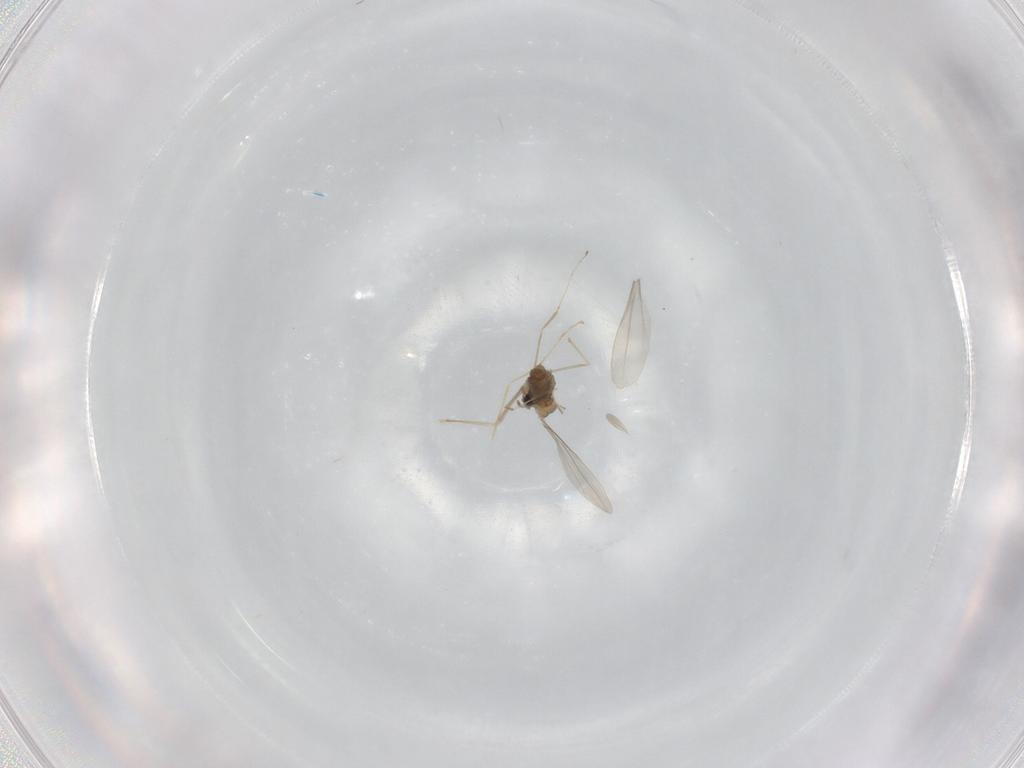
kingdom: Animalia
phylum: Arthropoda
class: Insecta
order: Diptera
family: Cecidomyiidae
